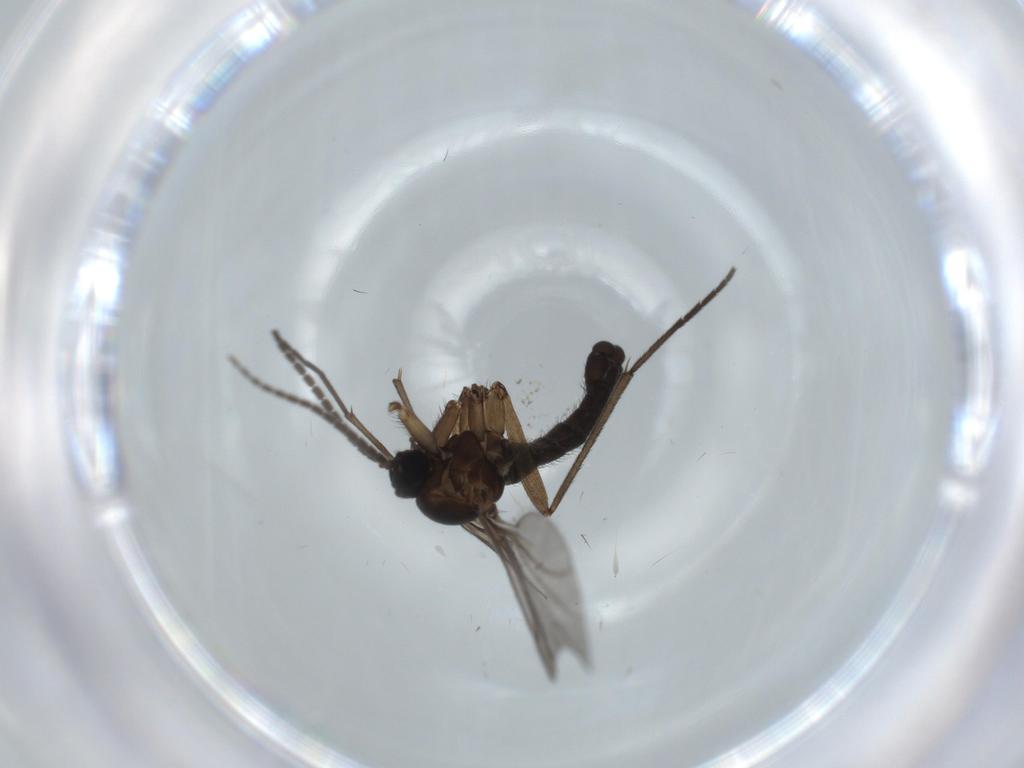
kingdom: Animalia
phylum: Arthropoda
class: Insecta
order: Diptera
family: Sciaridae
